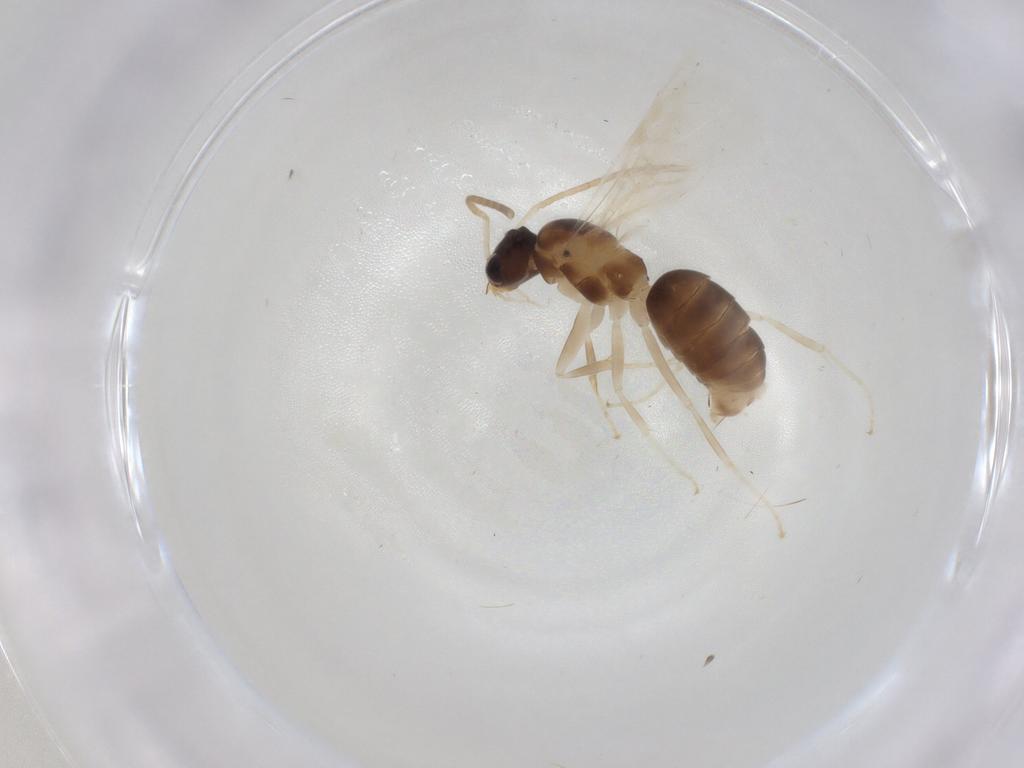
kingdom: Animalia
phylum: Arthropoda
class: Insecta
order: Hymenoptera
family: Formicidae
